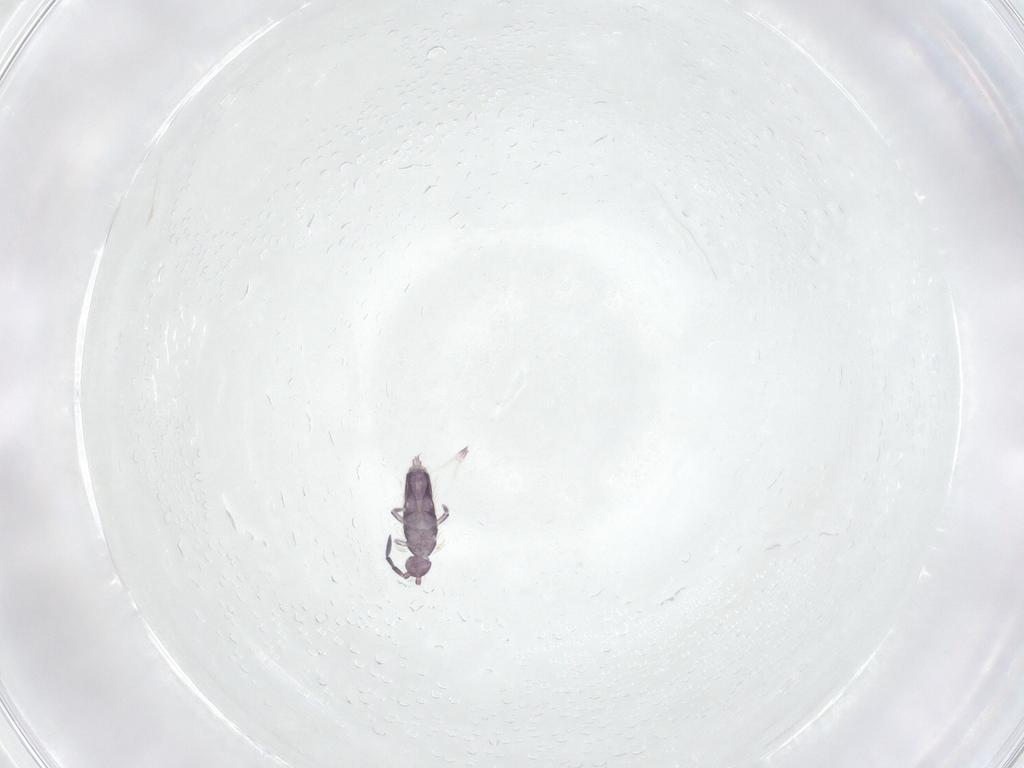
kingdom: Animalia
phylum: Arthropoda
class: Collembola
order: Entomobryomorpha
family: Entomobryidae
